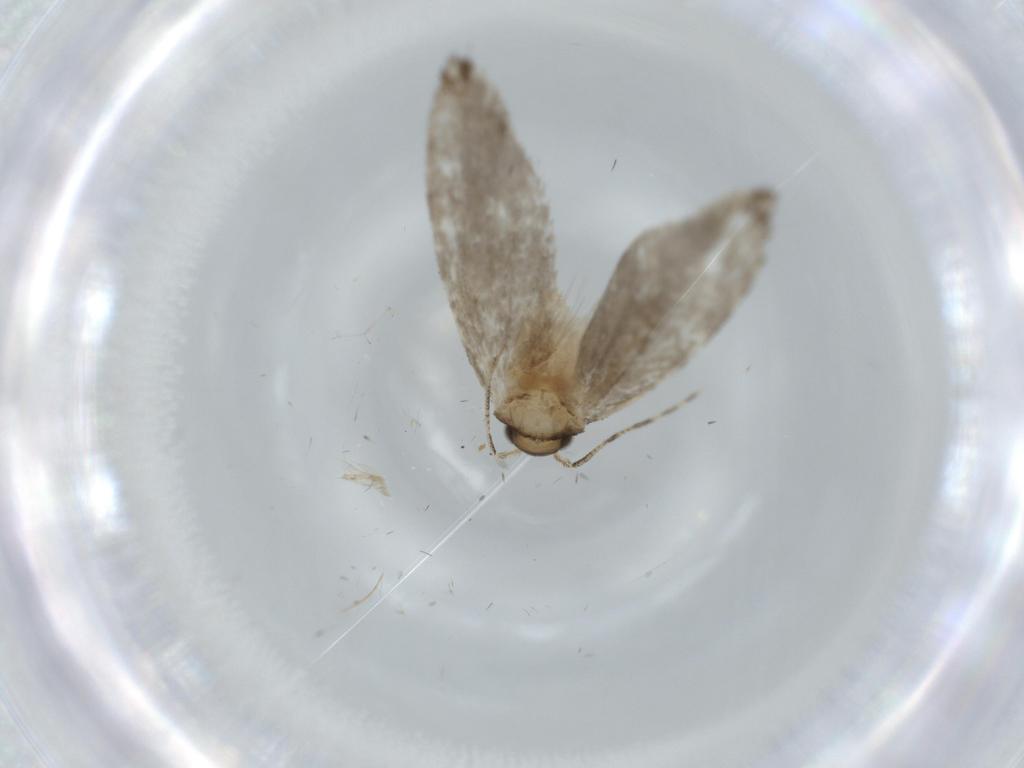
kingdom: Animalia
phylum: Arthropoda
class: Insecta
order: Lepidoptera
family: Tineidae
